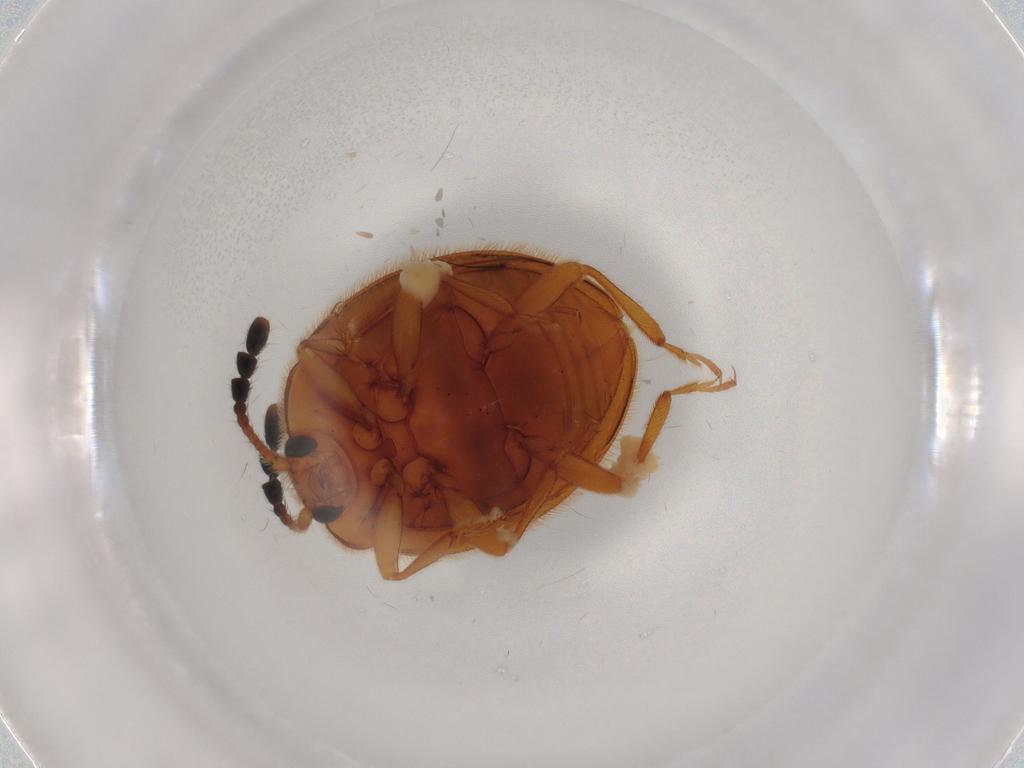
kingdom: Animalia
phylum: Arthropoda
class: Insecta
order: Coleoptera
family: Endomychidae
